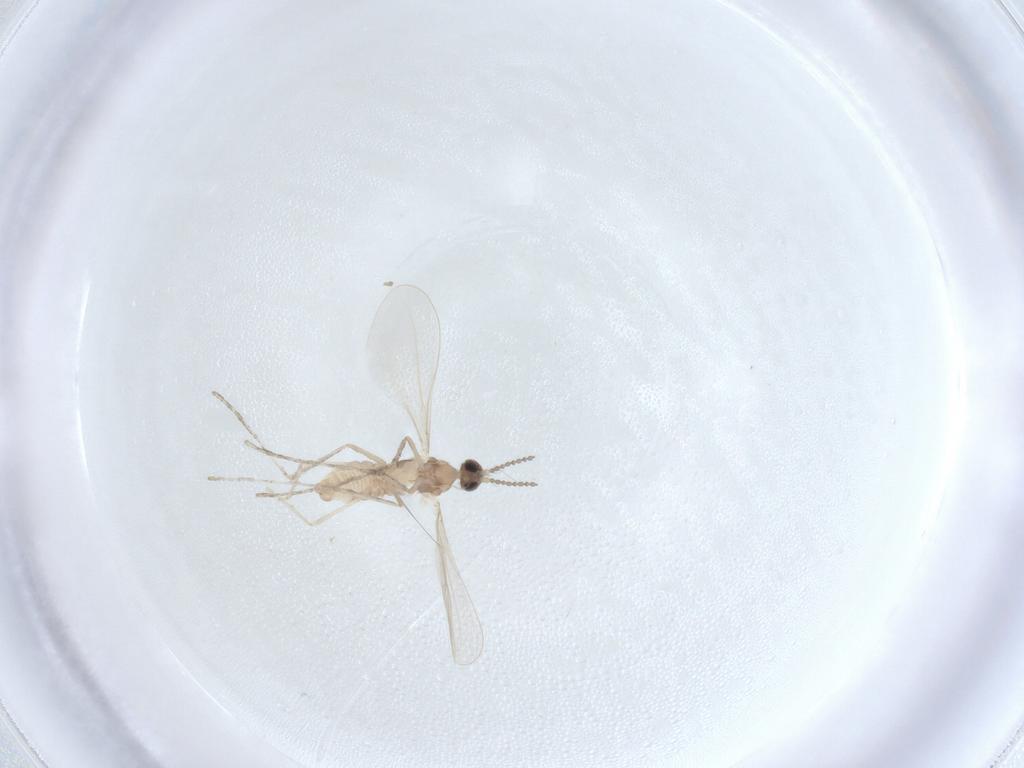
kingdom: Animalia
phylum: Arthropoda
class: Insecta
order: Diptera
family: Cecidomyiidae
